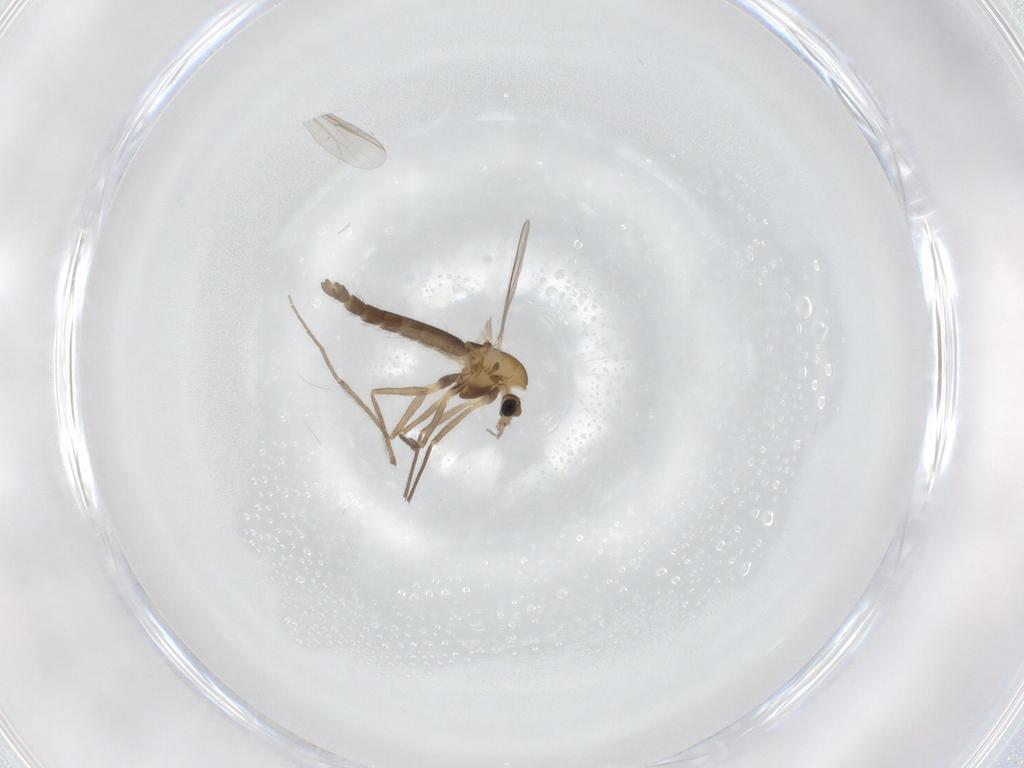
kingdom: Animalia
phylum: Arthropoda
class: Insecta
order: Diptera
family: Chironomidae
